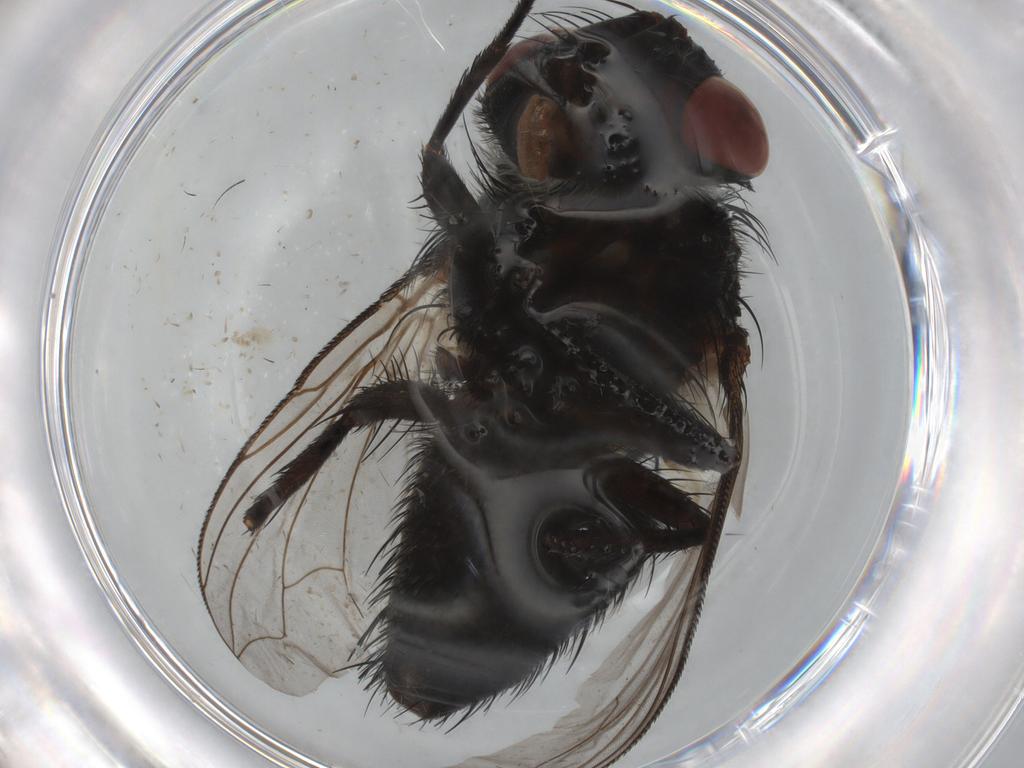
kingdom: Animalia
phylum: Arthropoda
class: Insecta
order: Diptera
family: Tachinidae
